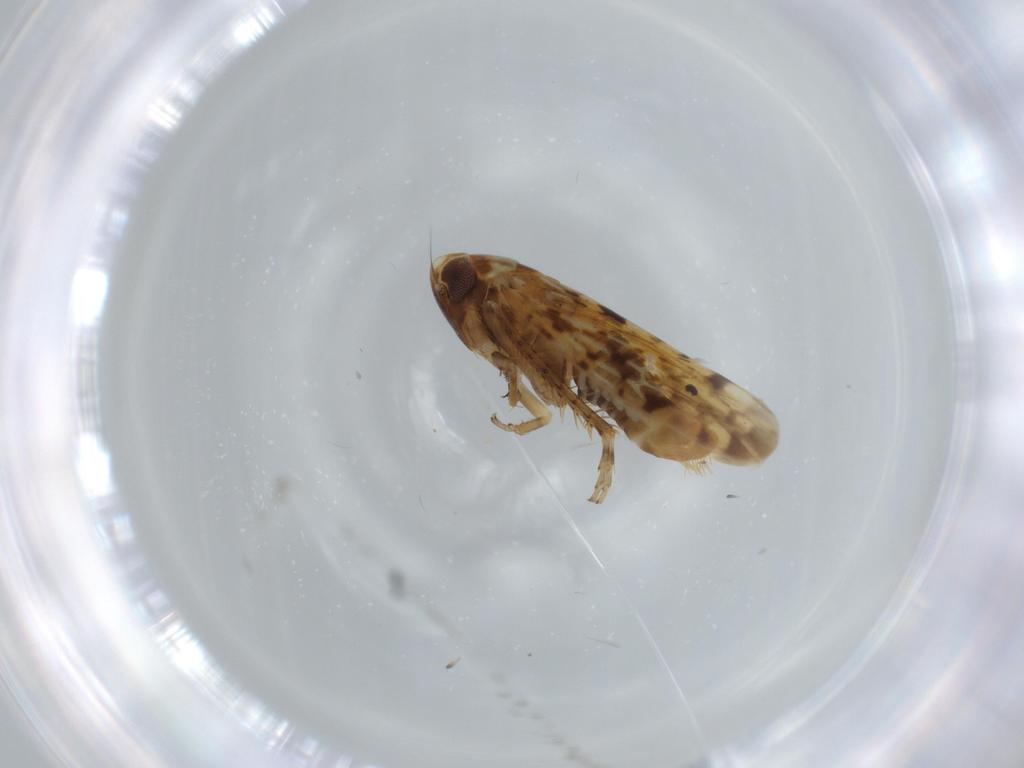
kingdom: Animalia
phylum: Arthropoda
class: Insecta
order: Hemiptera
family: Cicadellidae
